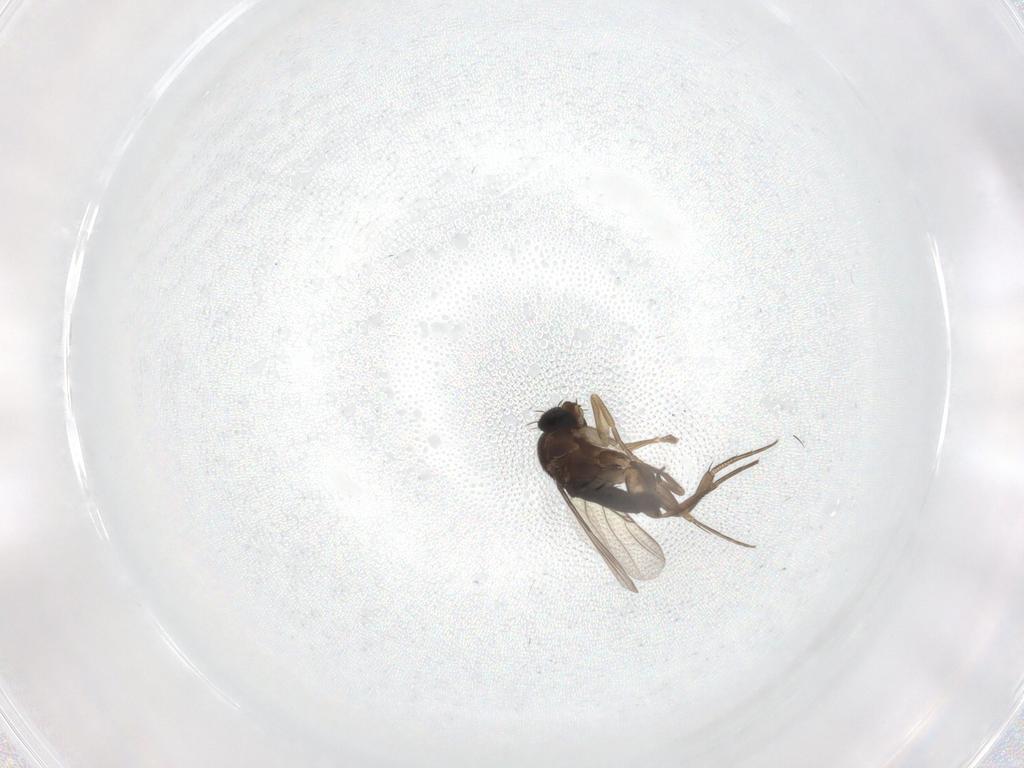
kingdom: Animalia
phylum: Arthropoda
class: Insecta
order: Diptera
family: Phoridae
